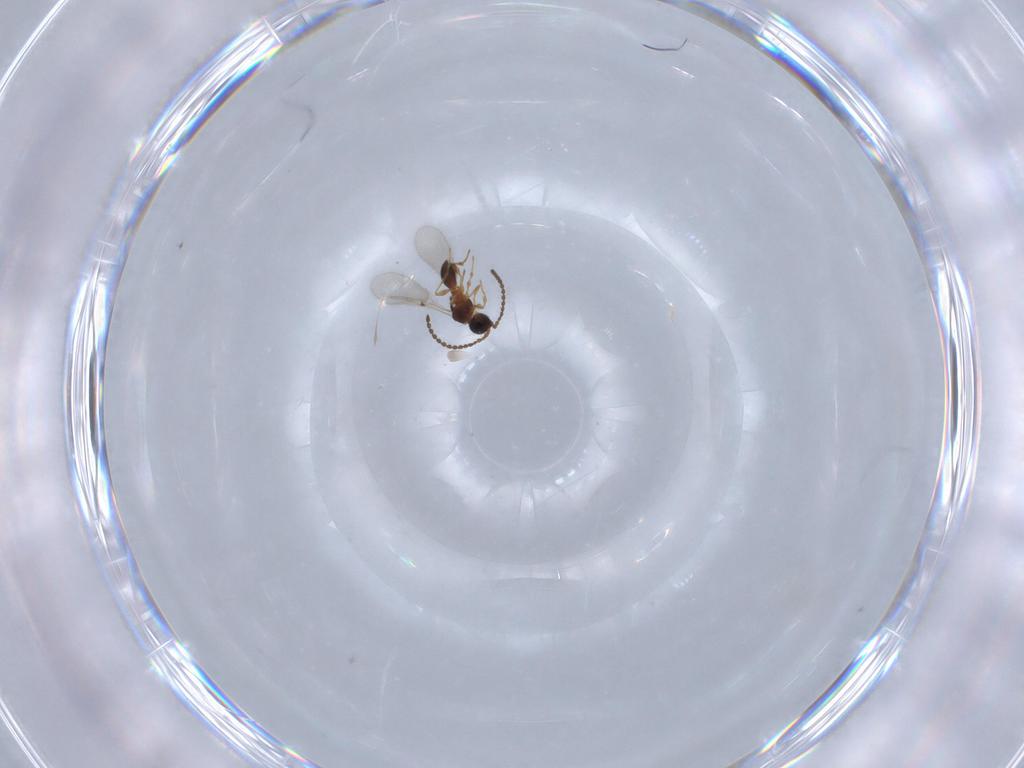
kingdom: Animalia
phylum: Arthropoda
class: Insecta
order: Hymenoptera
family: Diapriidae
